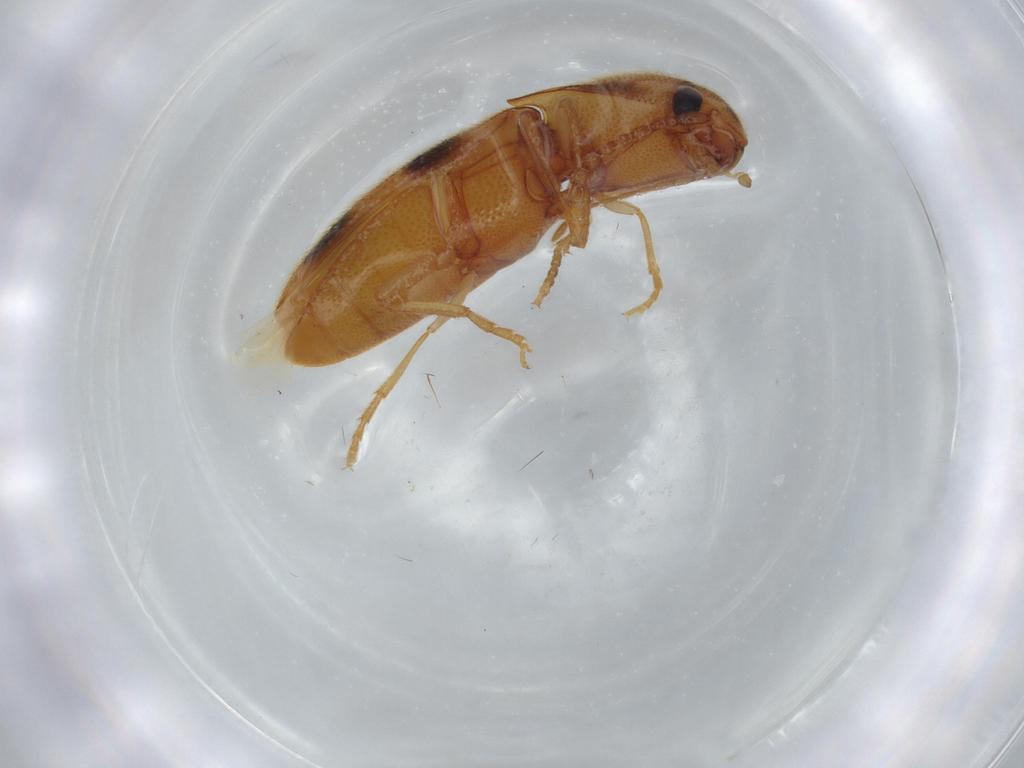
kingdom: Animalia
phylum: Arthropoda
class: Insecta
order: Coleoptera
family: Elateridae
